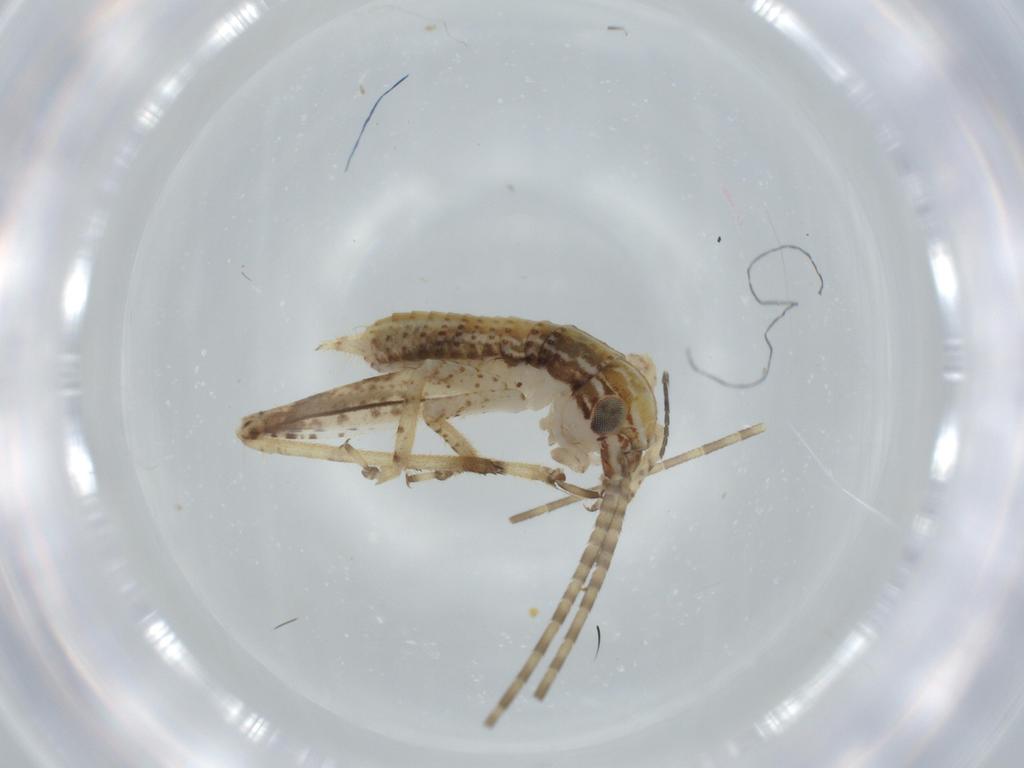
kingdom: Animalia
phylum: Arthropoda
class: Insecta
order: Orthoptera
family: Gryllidae
